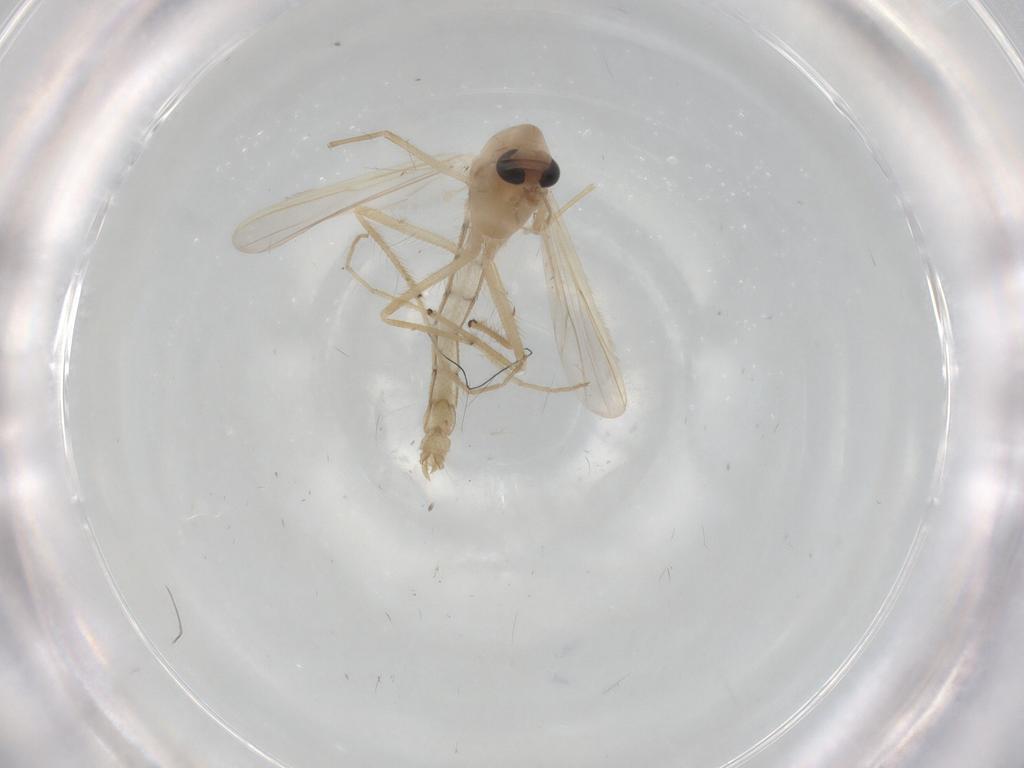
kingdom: Animalia
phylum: Arthropoda
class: Insecta
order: Diptera
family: Chironomidae
